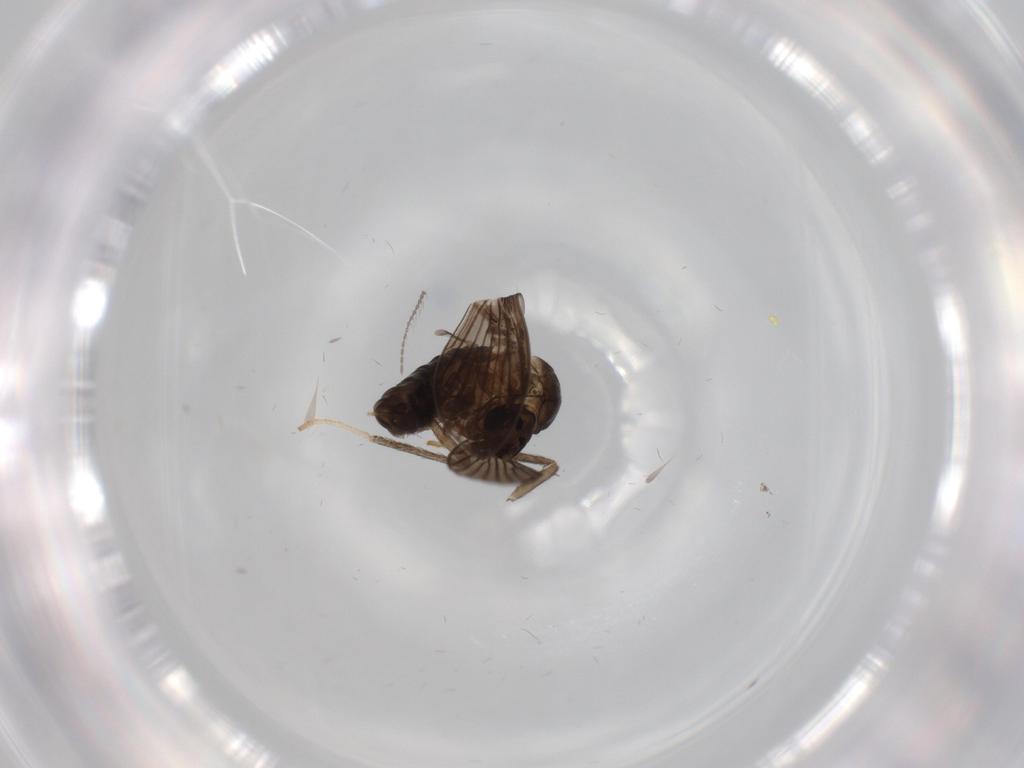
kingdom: Animalia
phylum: Arthropoda
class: Insecta
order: Diptera
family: Psychodidae
